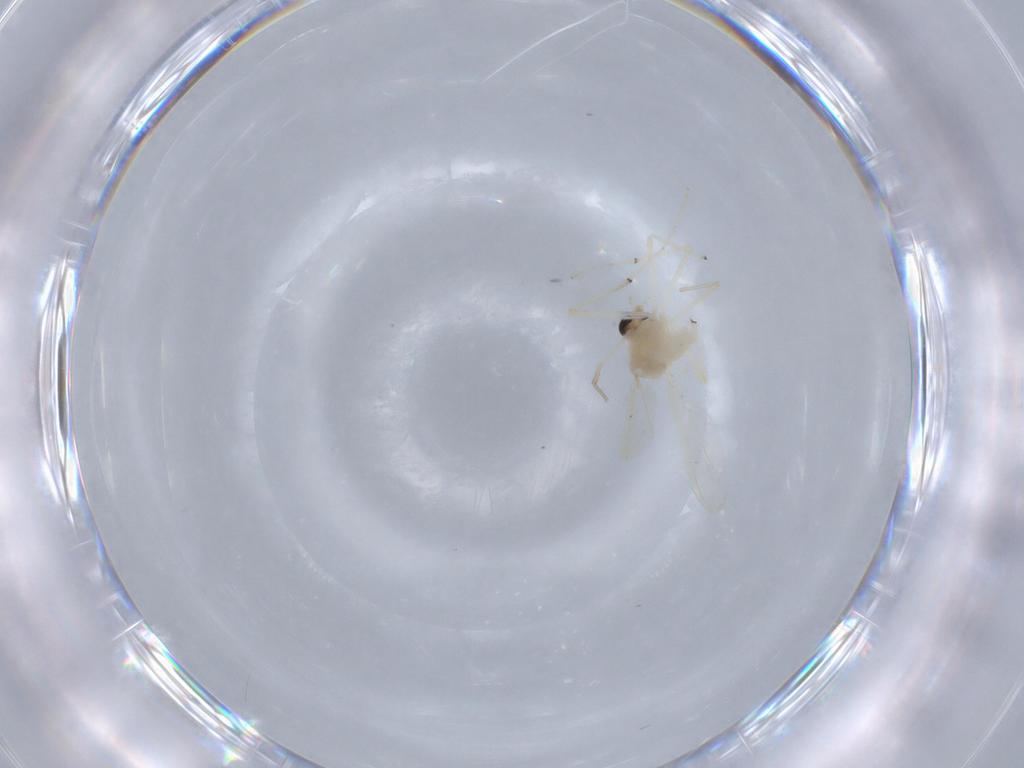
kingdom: Animalia
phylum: Arthropoda
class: Insecta
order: Diptera
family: Chironomidae
